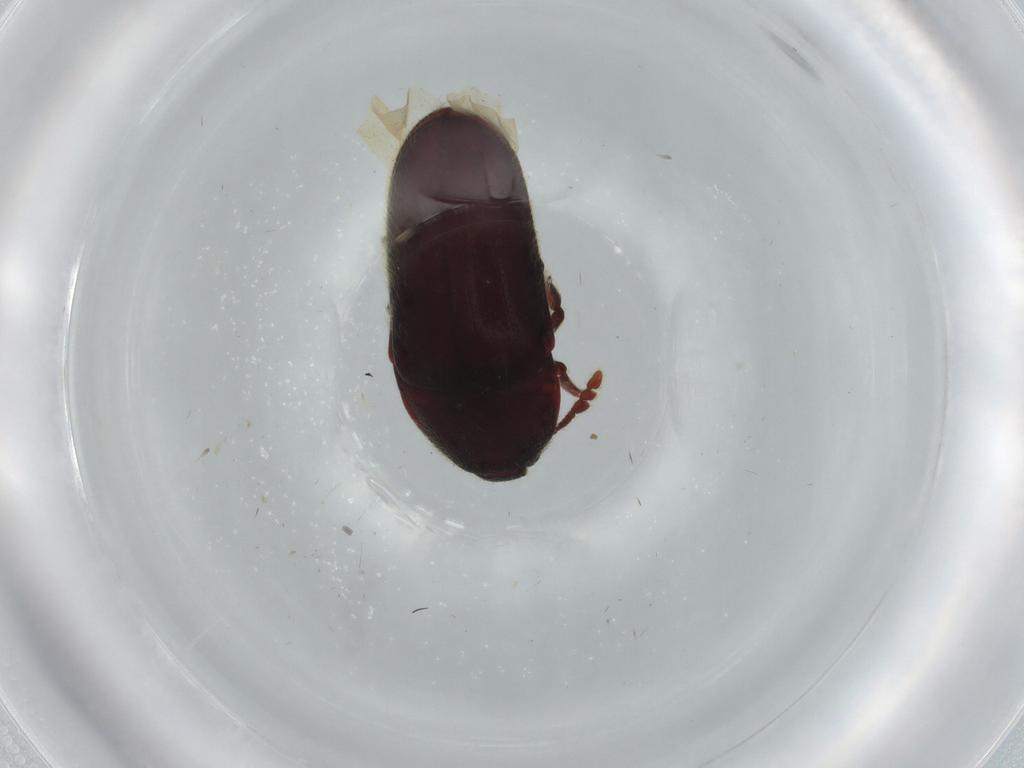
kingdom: Animalia
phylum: Arthropoda
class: Insecta
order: Coleoptera
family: Throscidae
